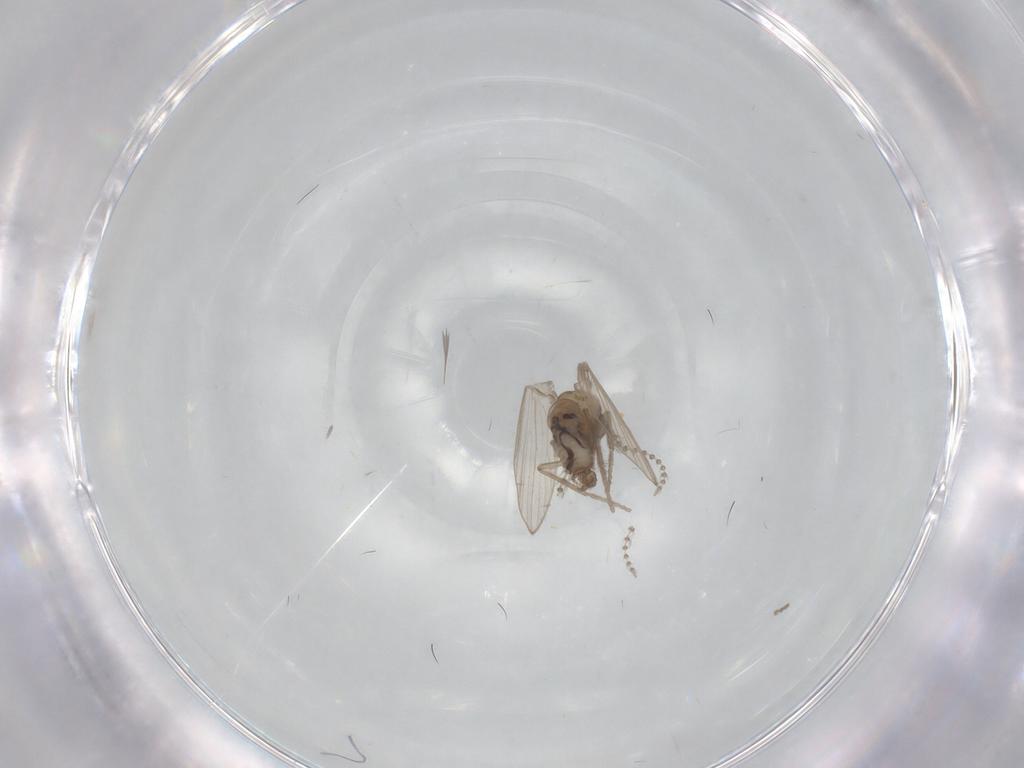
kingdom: Animalia
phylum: Arthropoda
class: Insecta
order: Diptera
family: Psychodidae
